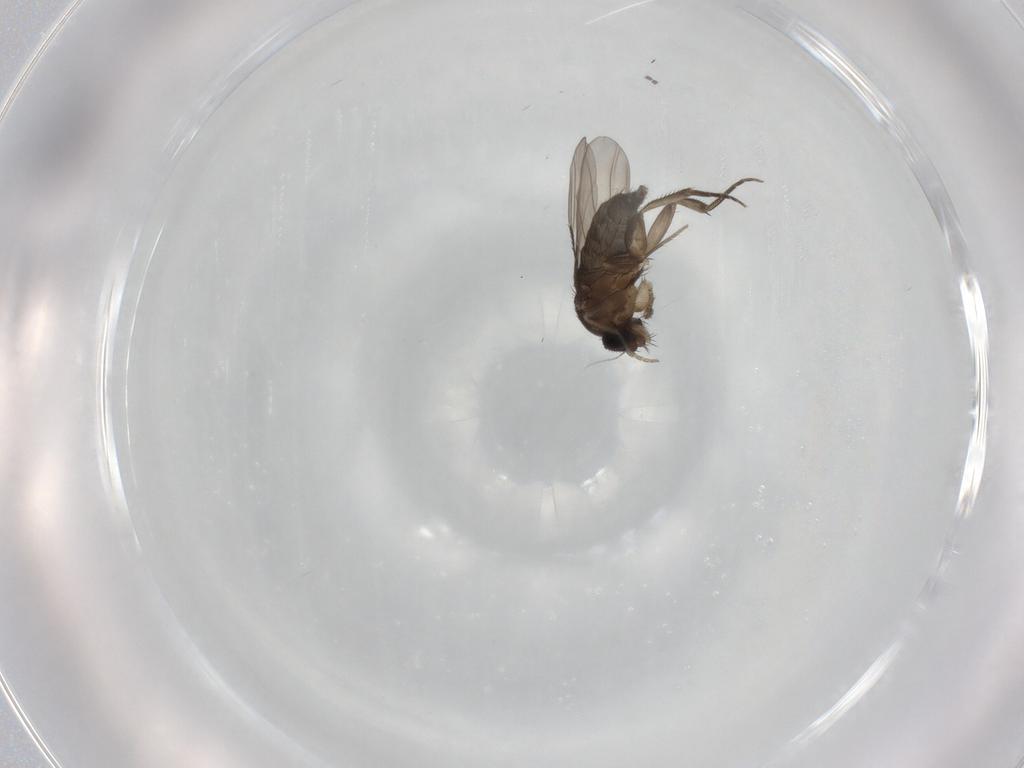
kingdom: Animalia
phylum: Arthropoda
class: Insecta
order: Diptera
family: Phoridae
